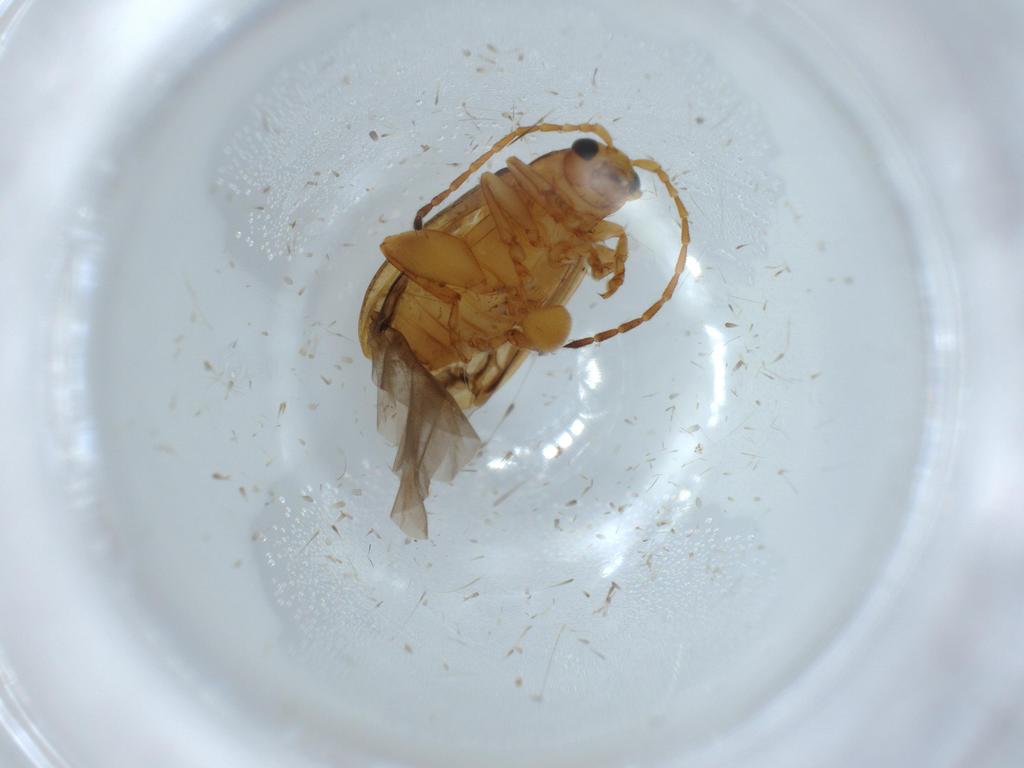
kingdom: Animalia
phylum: Arthropoda
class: Insecta
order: Coleoptera
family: Chrysomelidae
